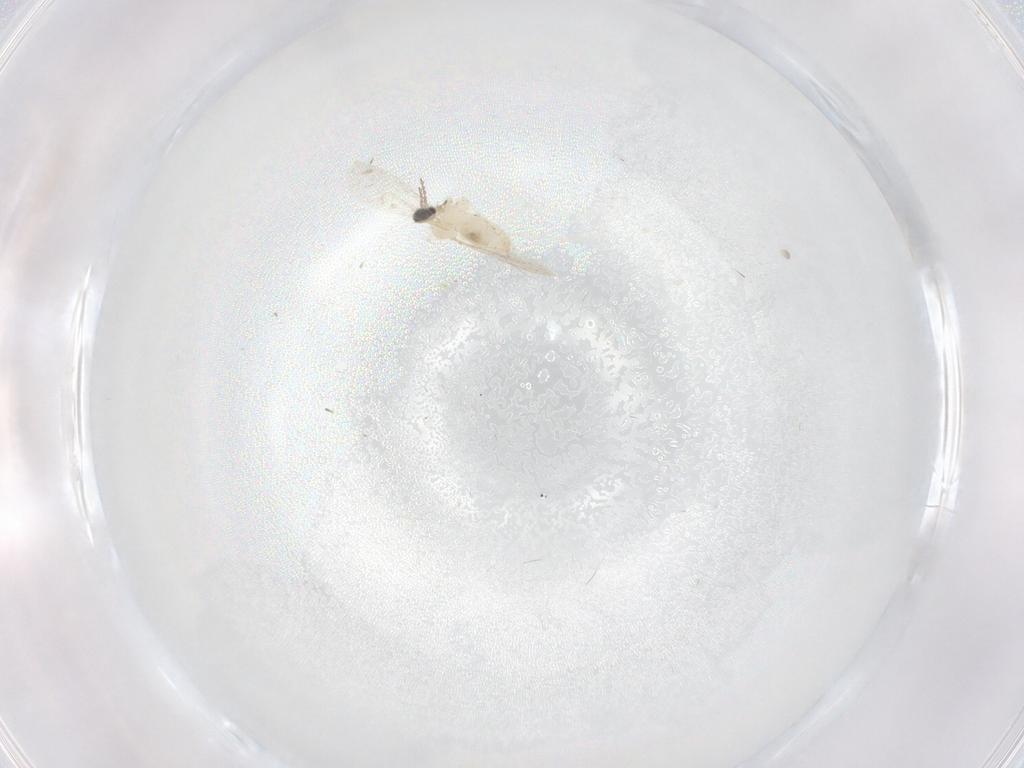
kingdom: Animalia
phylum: Arthropoda
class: Insecta
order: Diptera
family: Cecidomyiidae
